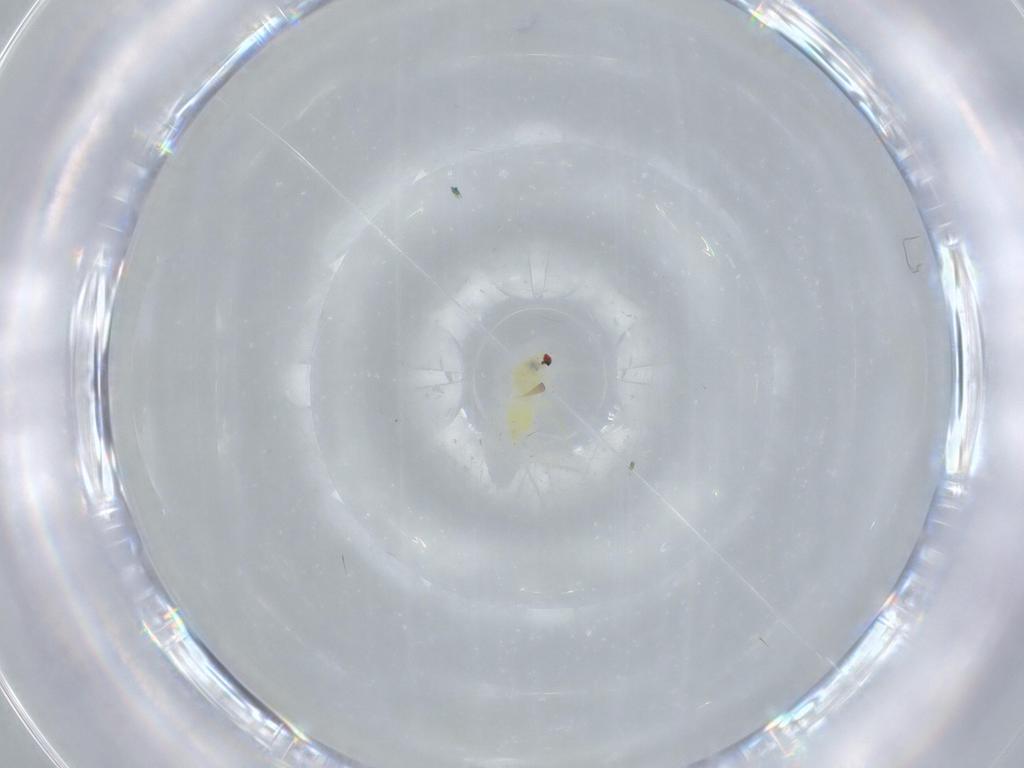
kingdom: Animalia
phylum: Arthropoda
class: Insecta
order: Hemiptera
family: Aleyrodidae
